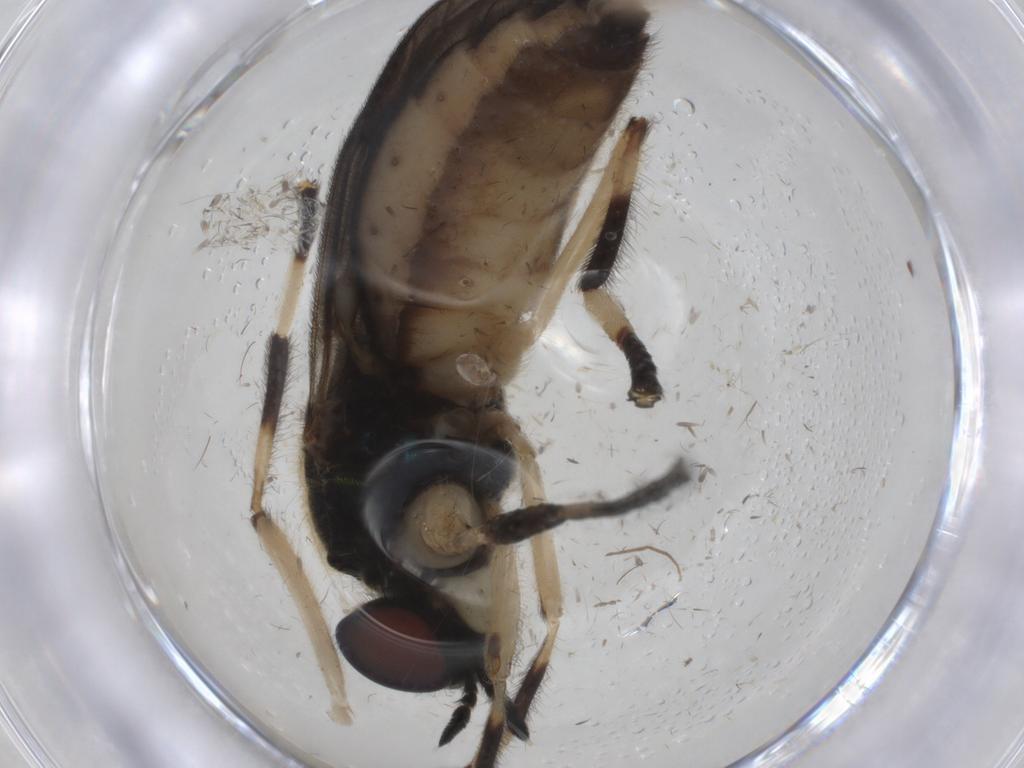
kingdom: Animalia
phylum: Arthropoda
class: Insecta
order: Diptera
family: Stratiomyidae
